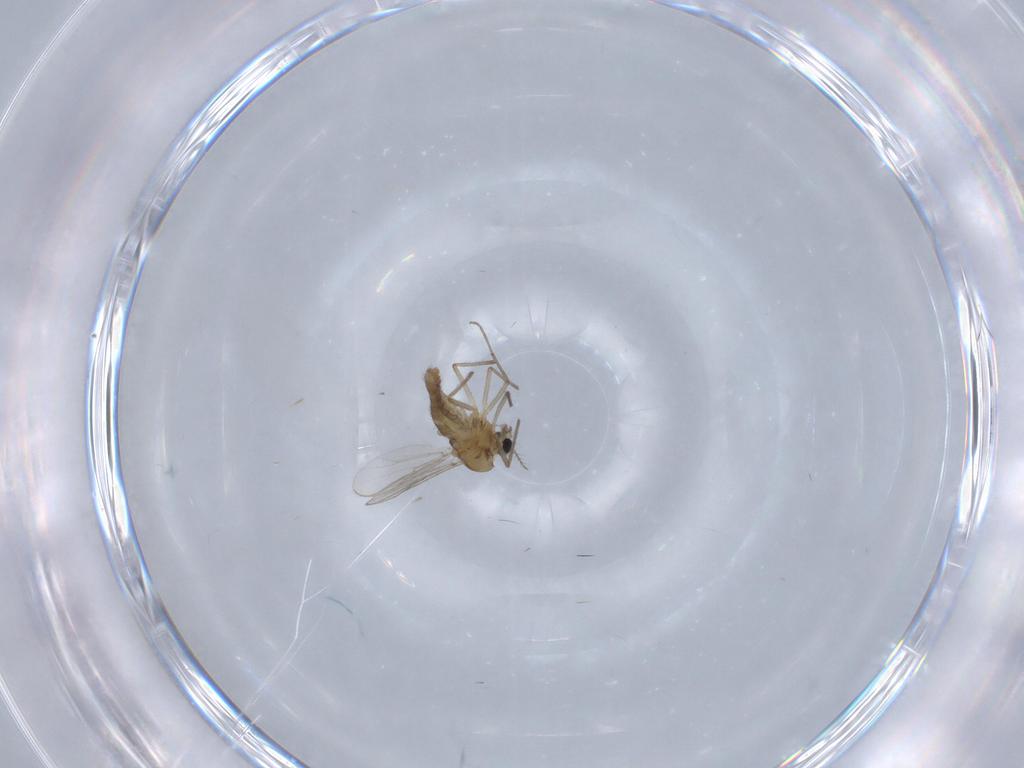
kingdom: Animalia
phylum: Arthropoda
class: Insecta
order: Diptera
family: Chironomidae
